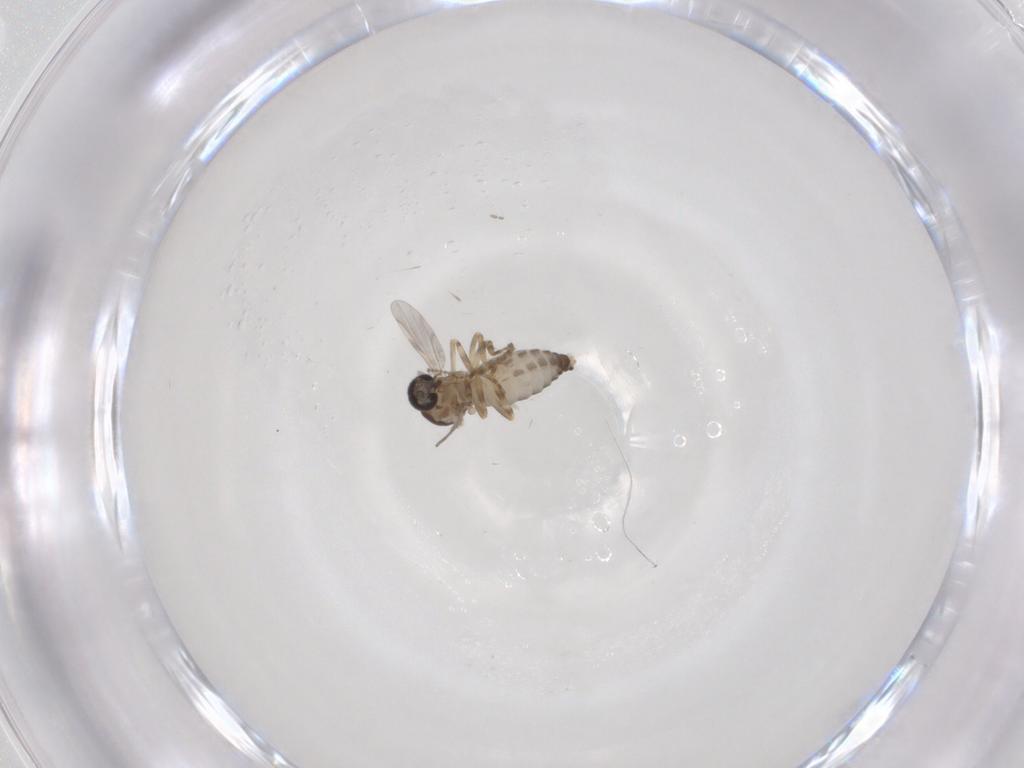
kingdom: Animalia
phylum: Arthropoda
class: Insecta
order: Diptera
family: Ceratopogonidae
